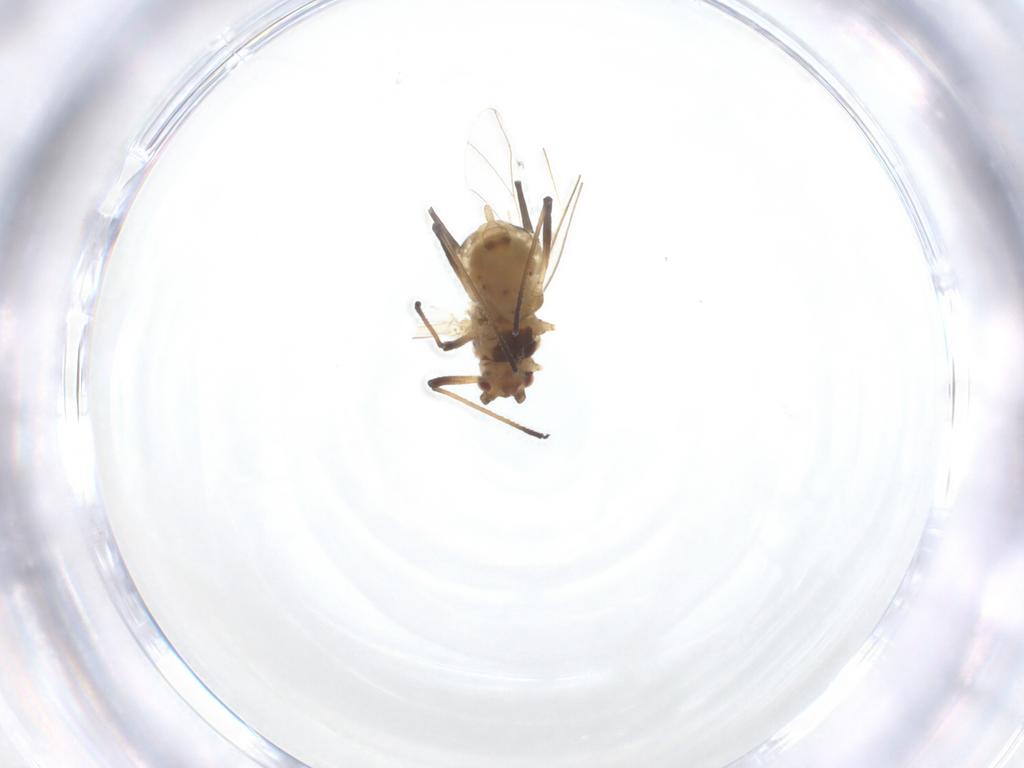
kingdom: Animalia
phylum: Arthropoda
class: Insecta
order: Hemiptera
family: Aphididae
